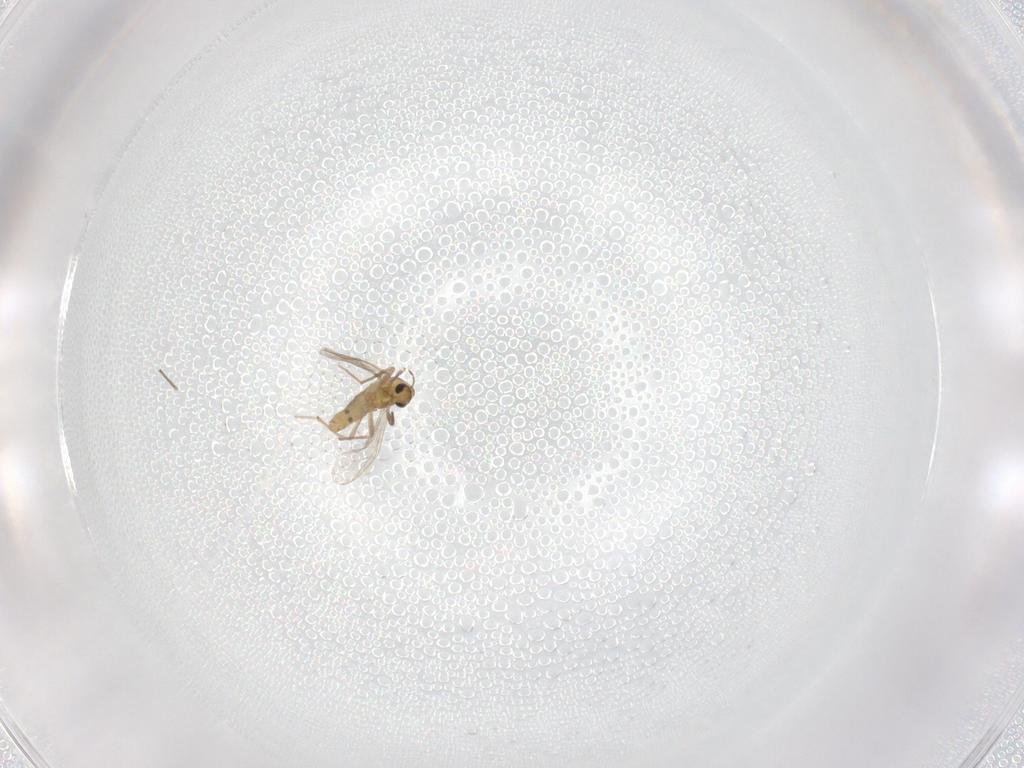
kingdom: Animalia
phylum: Arthropoda
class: Insecta
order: Diptera
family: Chironomidae
